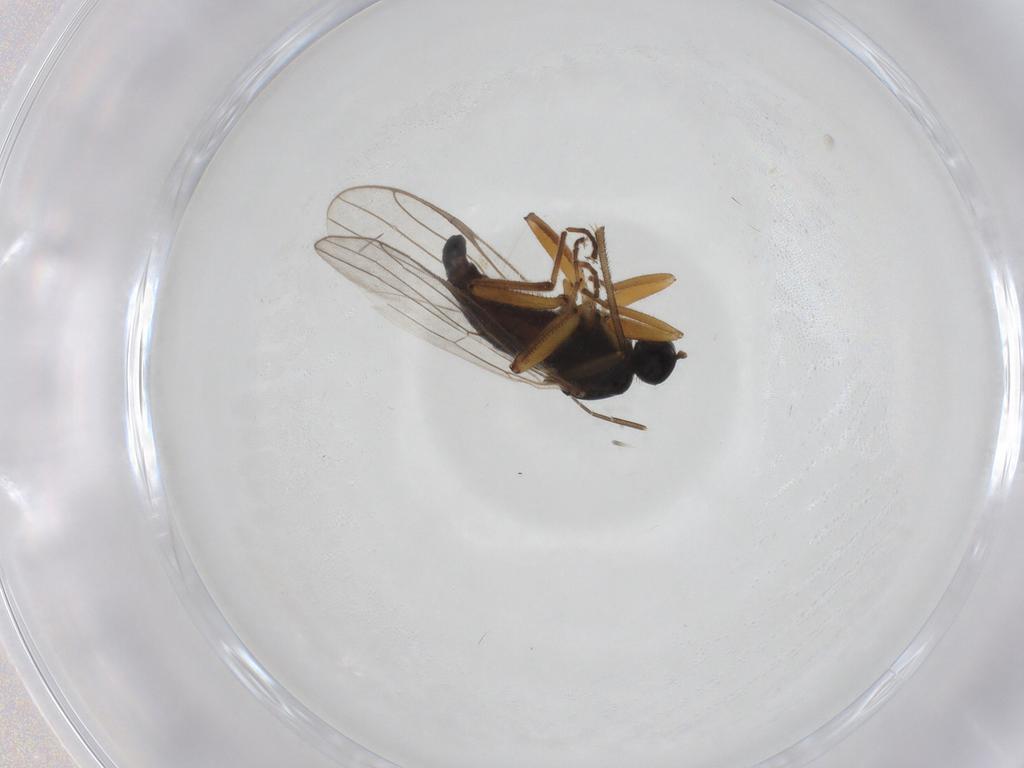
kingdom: Animalia
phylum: Arthropoda
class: Insecta
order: Diptera
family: Hybotidae
